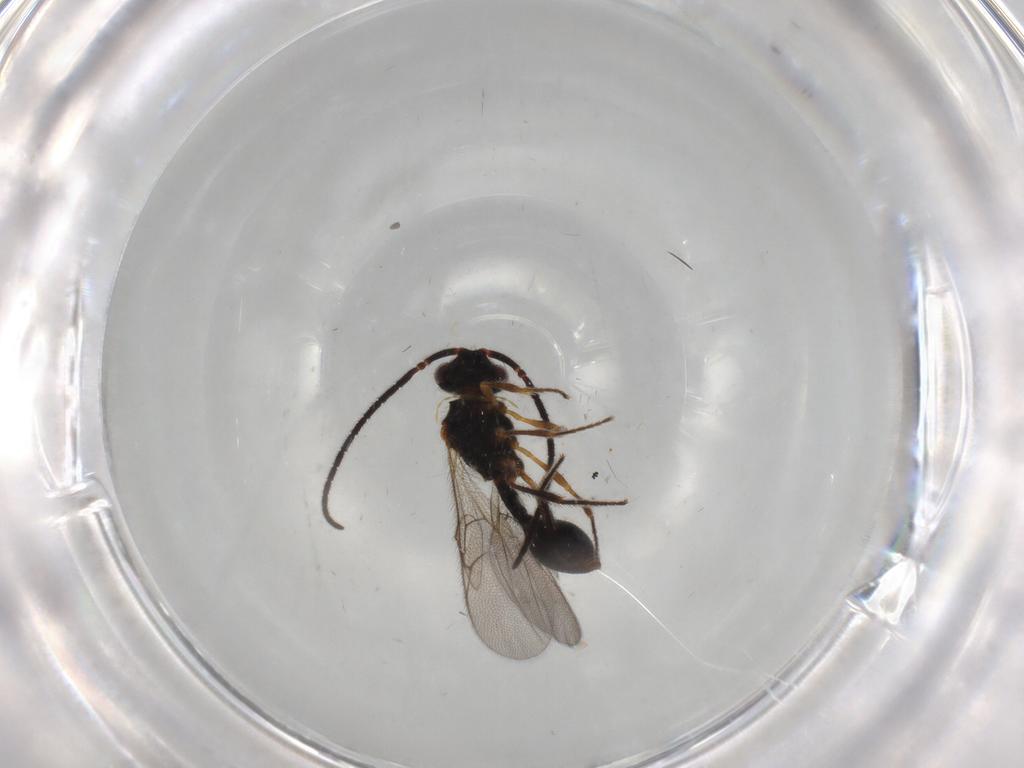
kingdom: Animalia
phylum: Arthropoda
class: Insecta
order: Hymenoptera
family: Diapriidae
